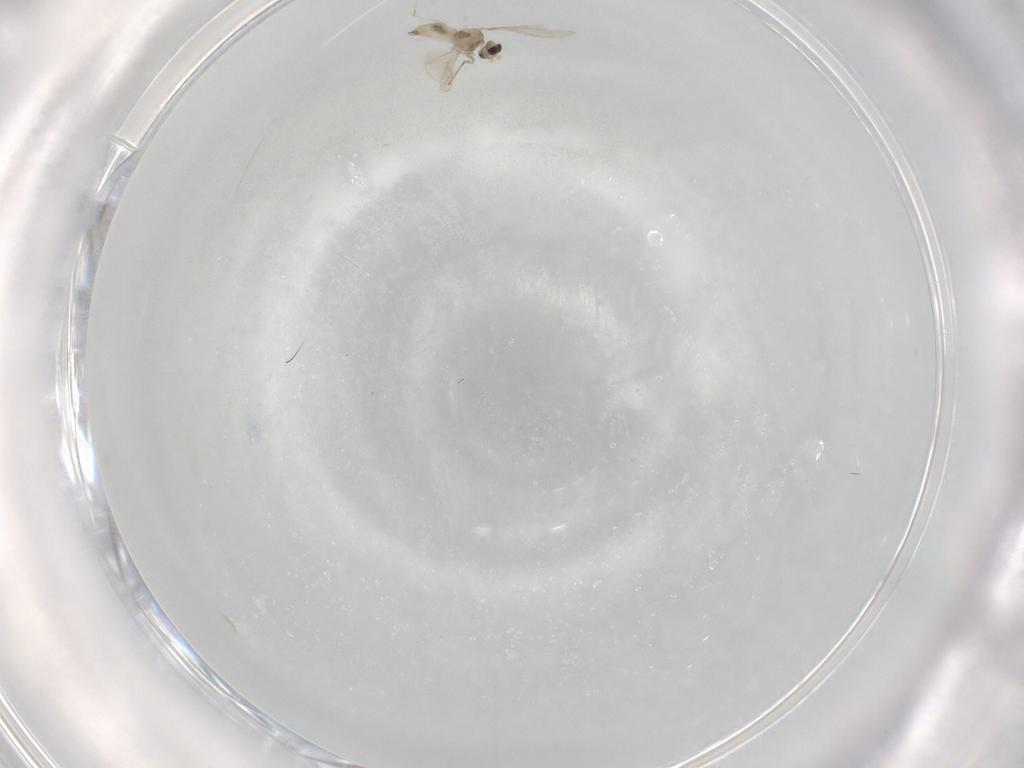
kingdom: Animalia
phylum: Arthropoda
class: Insecta
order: Diptera
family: Cecidomyiidae
